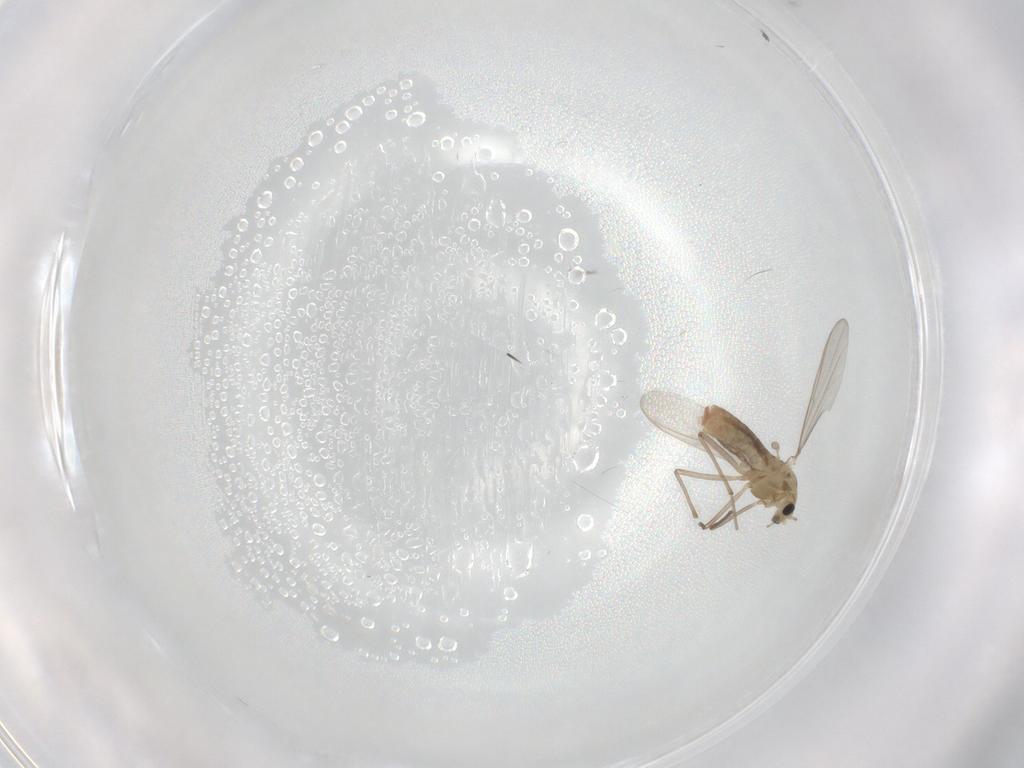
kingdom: Animalia
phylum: Arthropoda
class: Insecta
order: Diptera
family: Chironomidae
